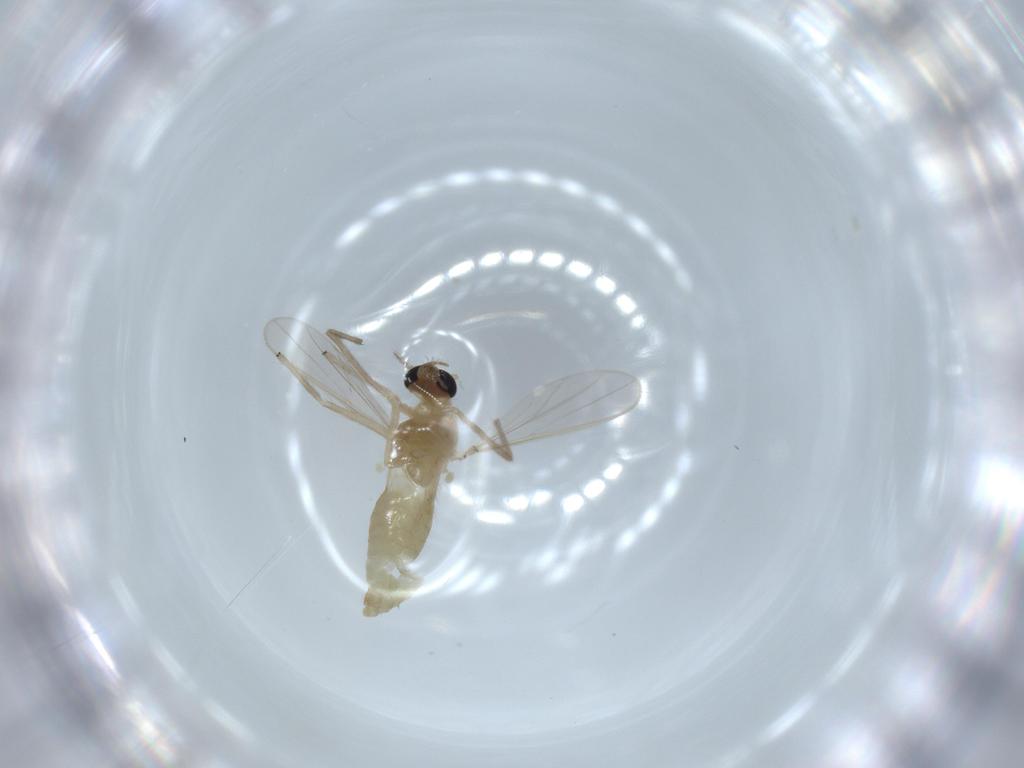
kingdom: Animalia
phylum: Arthropoda
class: Insecta
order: Diptera
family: Chironomidae
